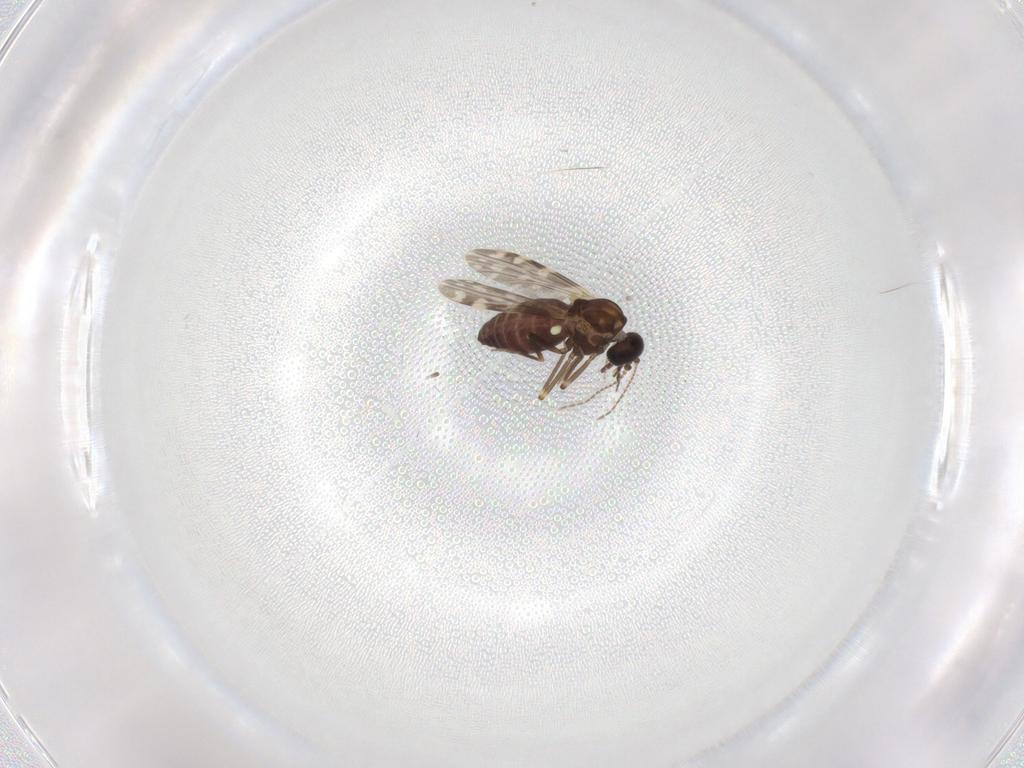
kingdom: Animalia
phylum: Arthropoda
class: Insecta
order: Diptera
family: Ceratopogonidae
